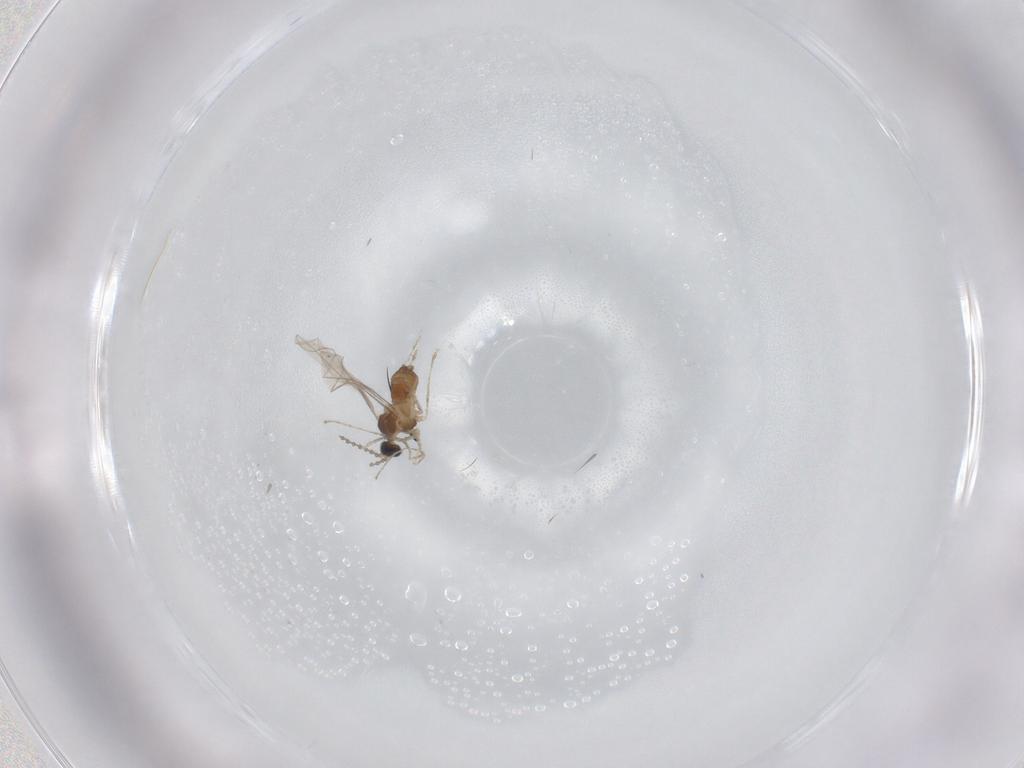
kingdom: Animalia
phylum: Arthropoda
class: Insecta
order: Diptera
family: Cecidomyiidae
